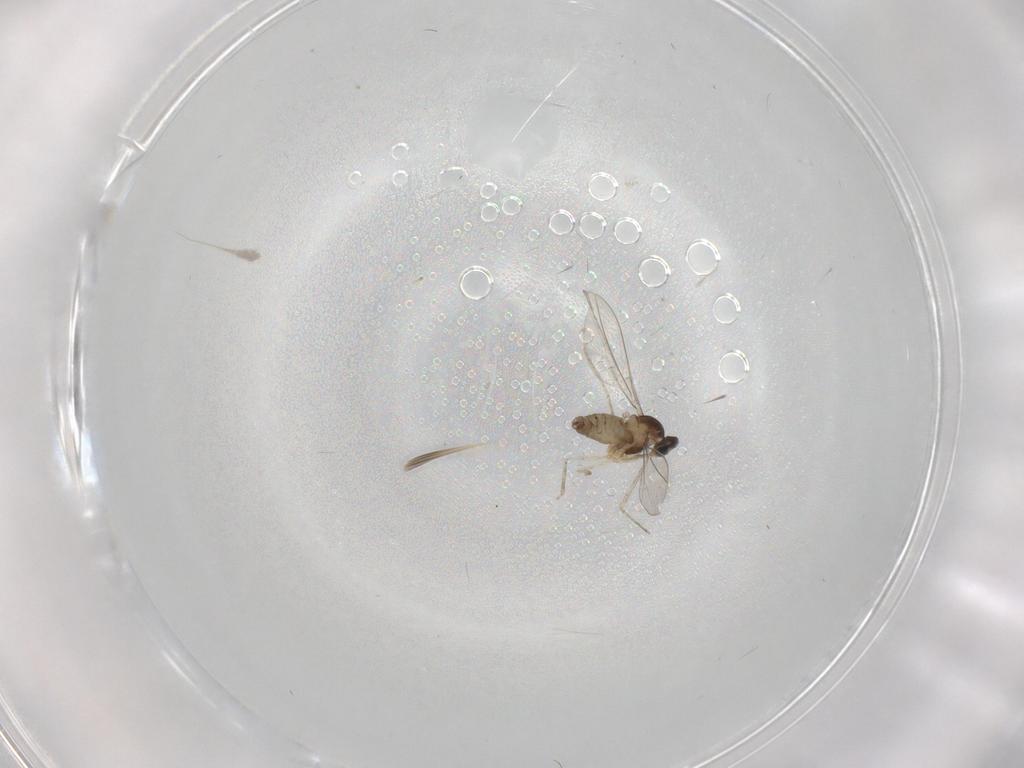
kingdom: Animalia
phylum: Arthropoda
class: Insecta
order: Diptera
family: Cecidomyiidae
